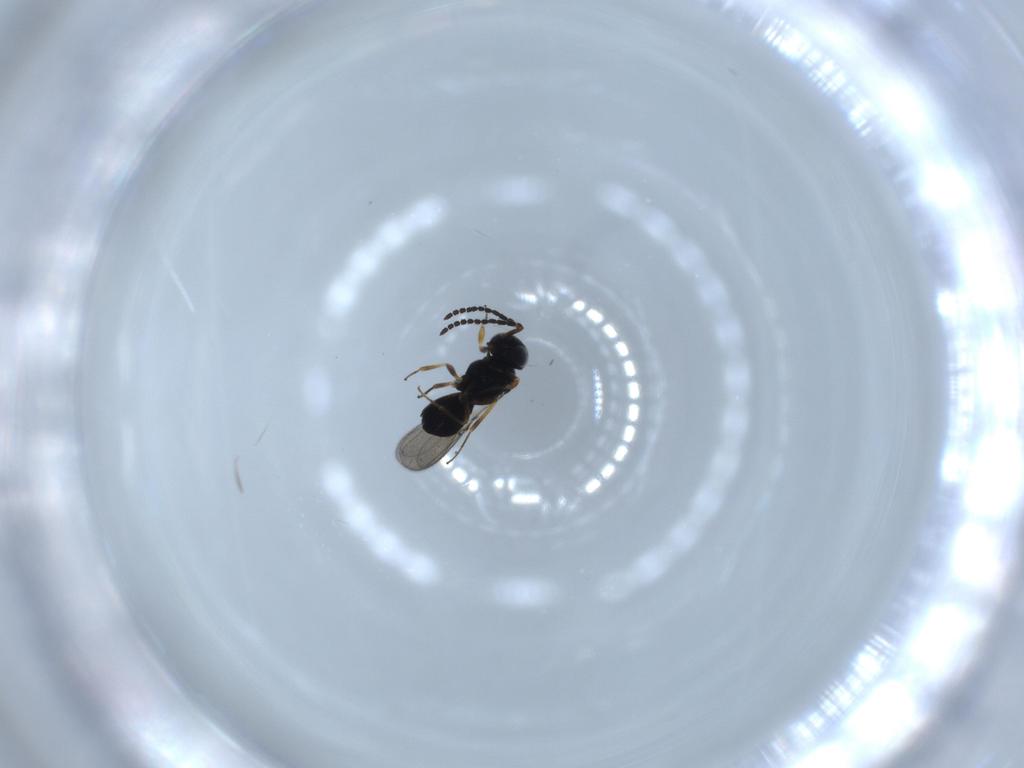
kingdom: Animalia
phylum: Arthropoda
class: Insecta
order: Hymenoptera
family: Scelionidae
